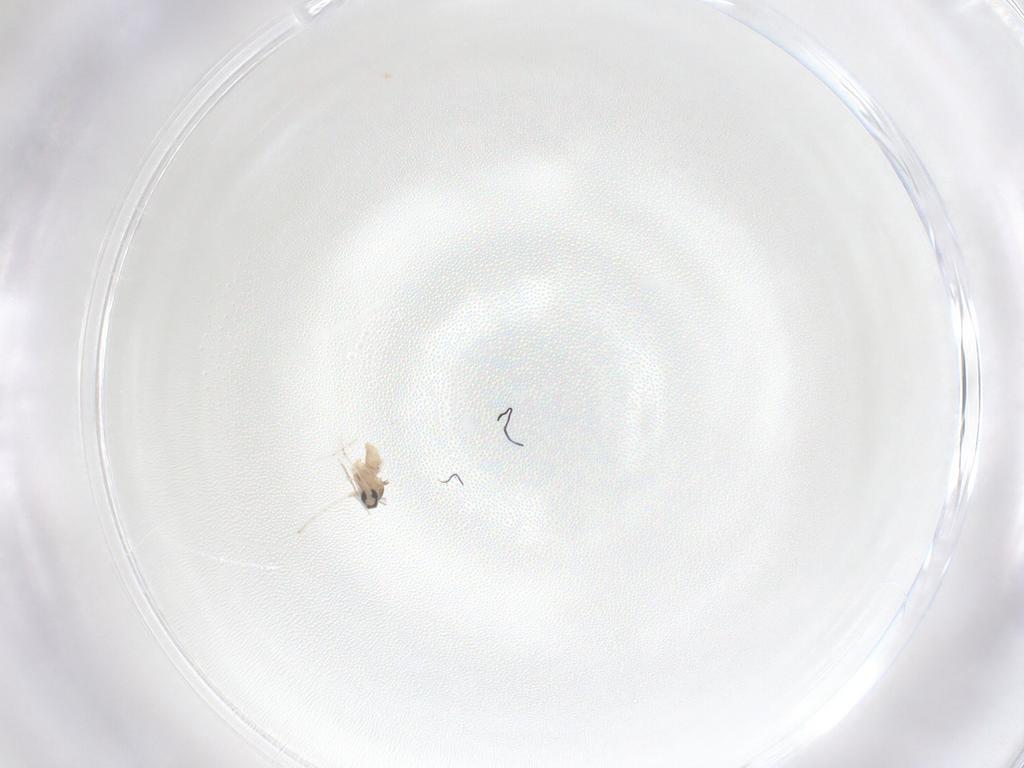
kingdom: Animalia
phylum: Arthropoda
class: Insecta
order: Diptera
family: Cecidomyiidae
